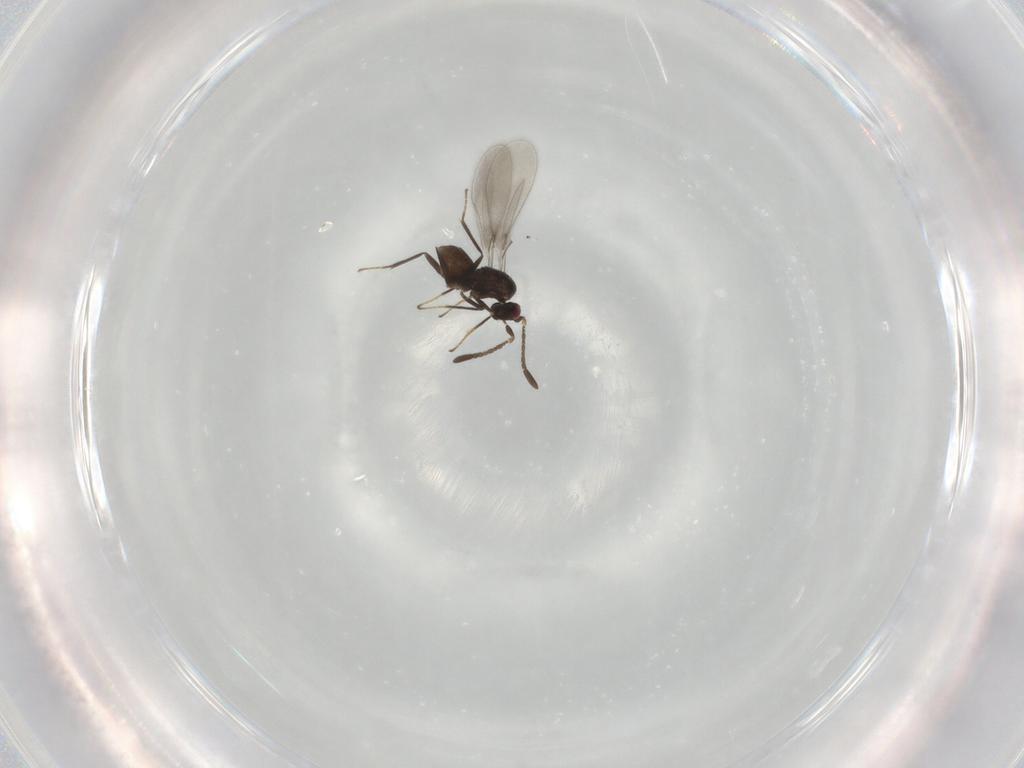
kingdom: Animalia
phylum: Arthropoda
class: Insecta
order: Hymenoptera
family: Mymaridae
